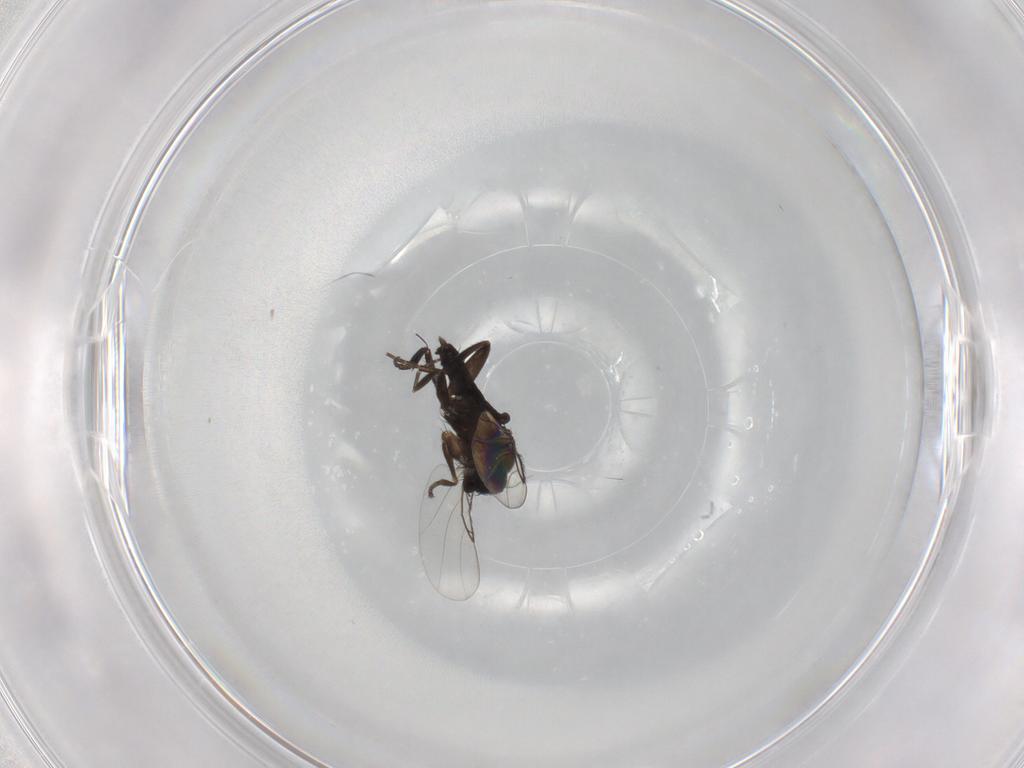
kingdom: Animalia
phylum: Arthropoda
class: Insecta
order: Diptera
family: Phoridae
